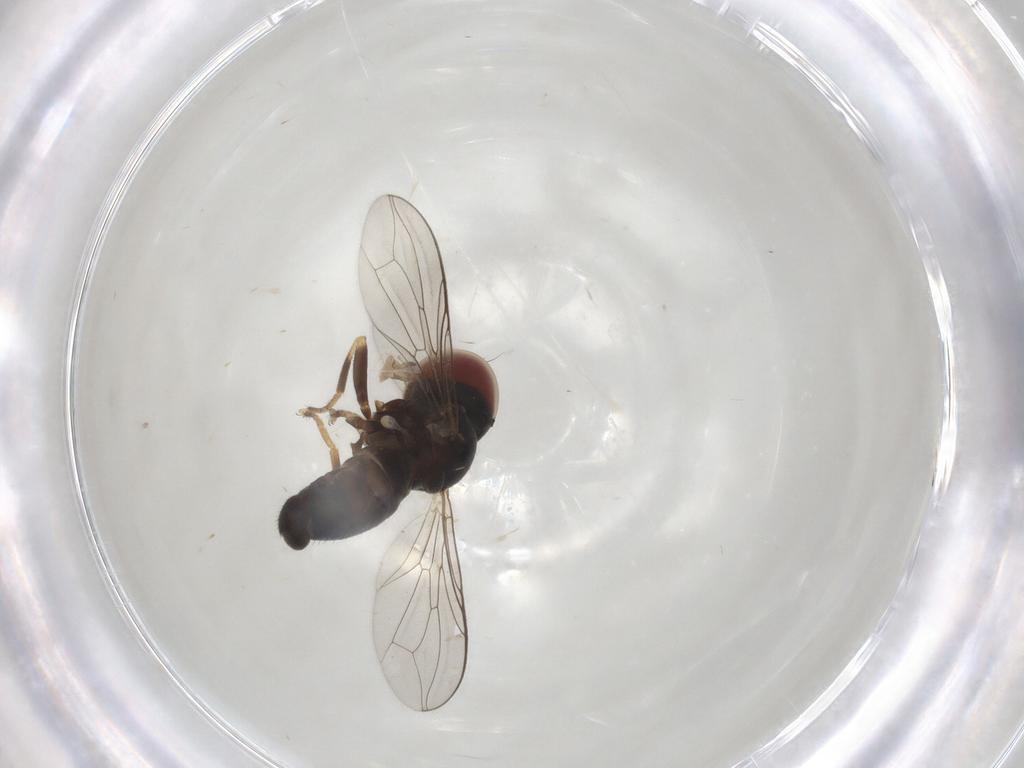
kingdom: Animalia
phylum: Arthropoda
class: Insecta
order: Diptera
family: Pipunculidae
